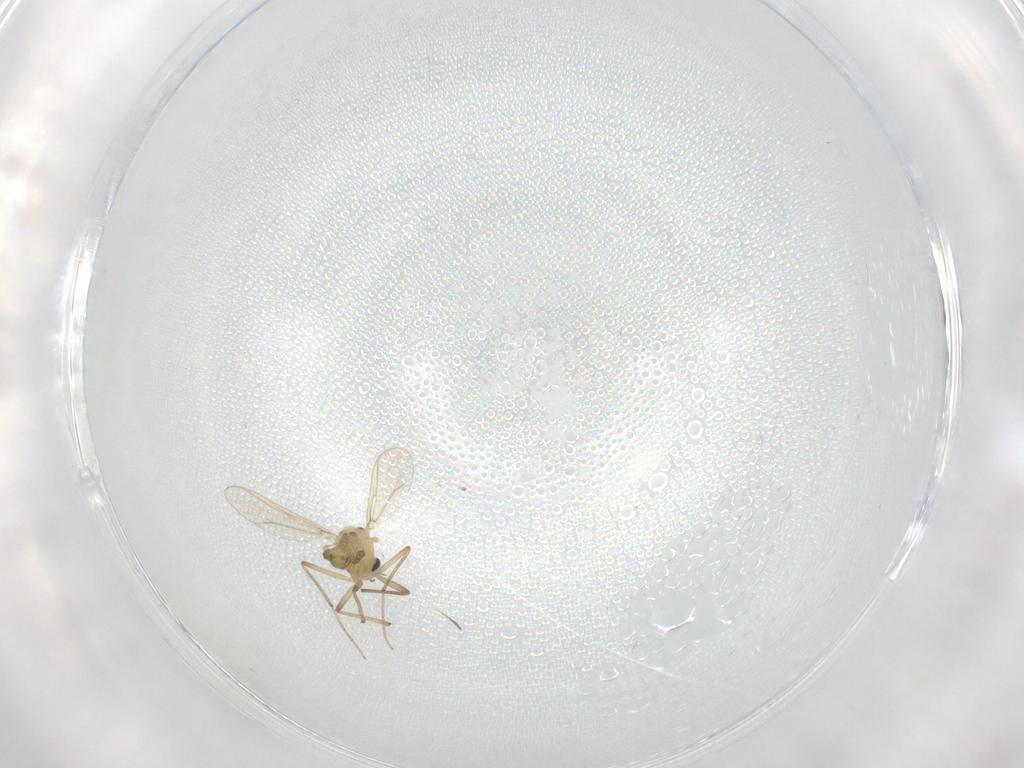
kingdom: Animalia
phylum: Arthropoda
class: Insecta
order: Diptera
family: Chironomidae
